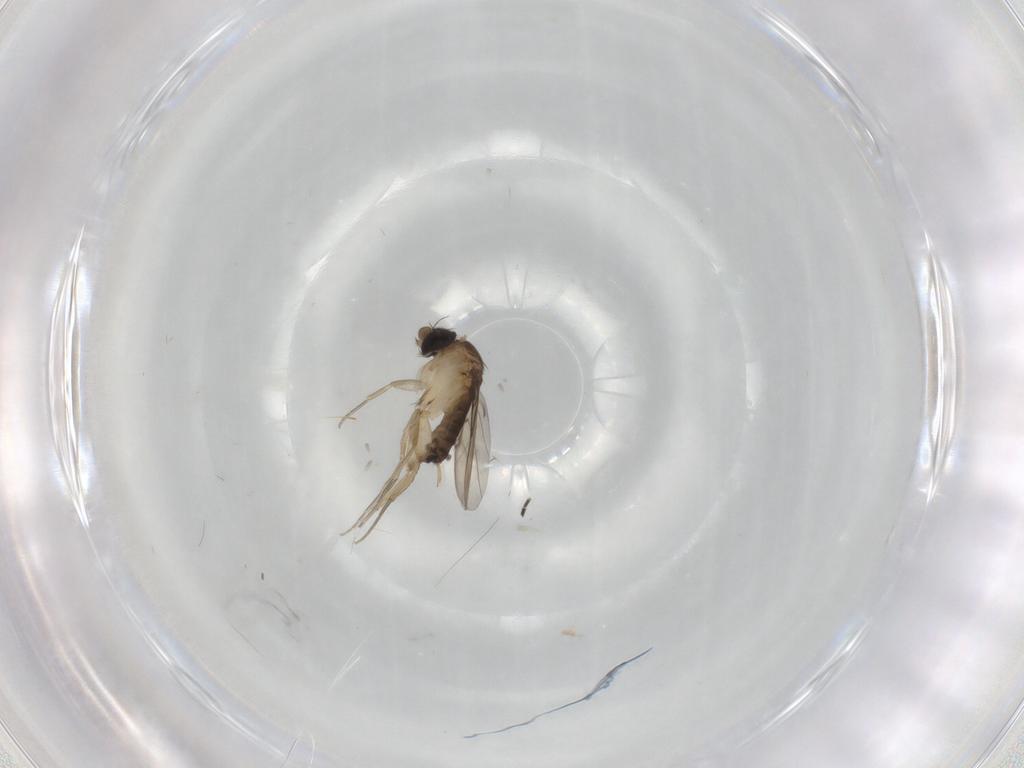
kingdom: Animalia
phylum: Arthropoda
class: Insecta
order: Diptera
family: Phoridae
